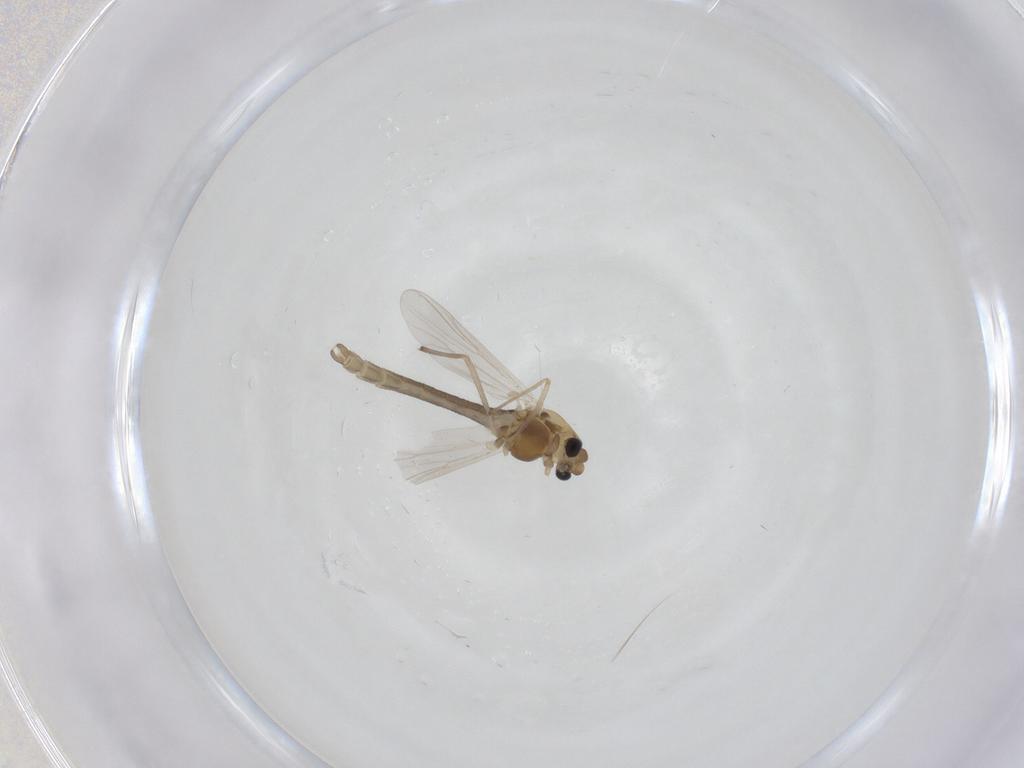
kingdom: Animalia
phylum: Arthropoda
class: Insecta
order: Diptera
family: Chironomidae
